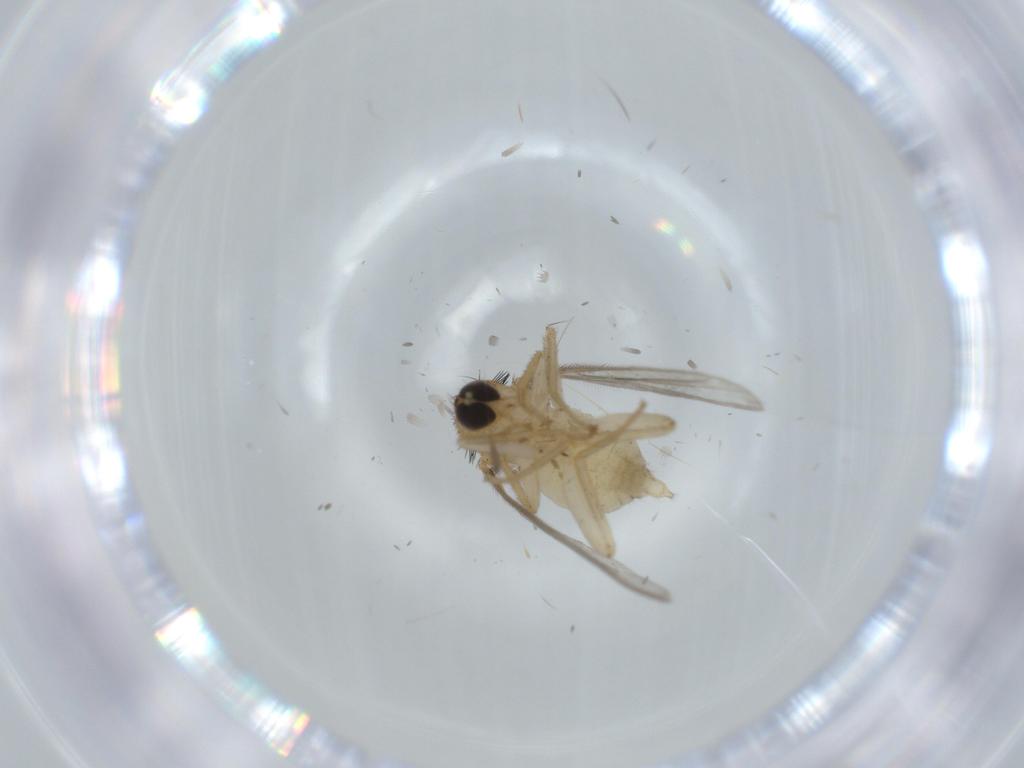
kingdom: Animalia
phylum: Arthropoda
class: Insecta
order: Diptera
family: Hybotidae
